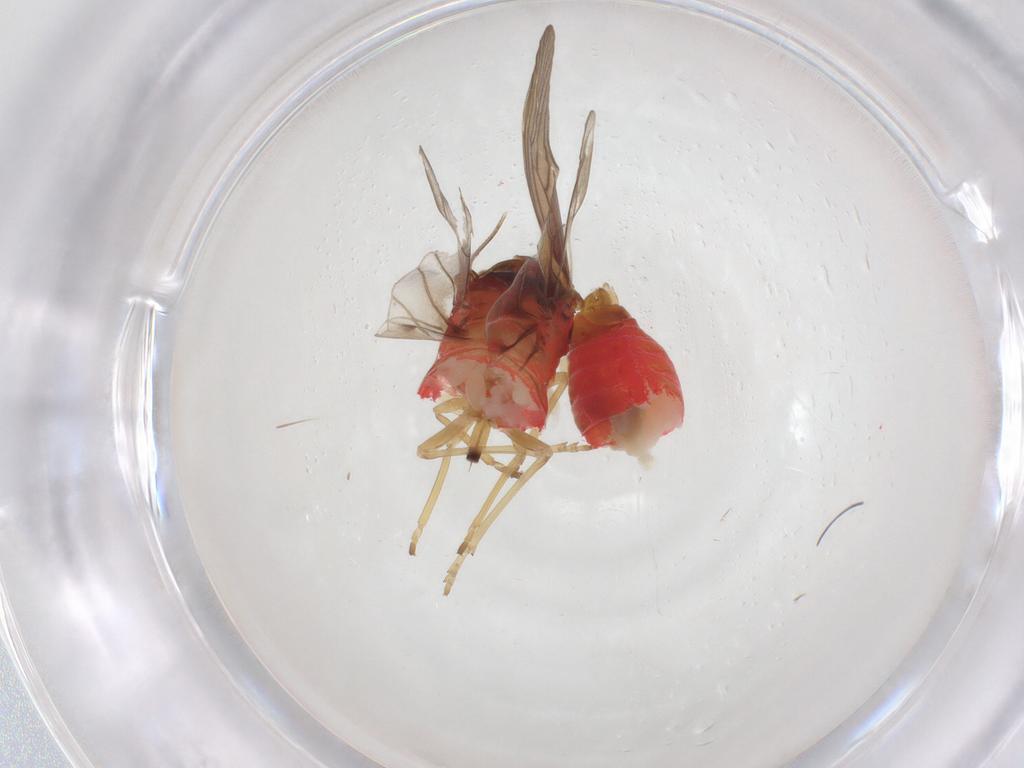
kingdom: Animalia
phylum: Arthropoda
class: Insecta
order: Hemiptera
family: Derbidae
